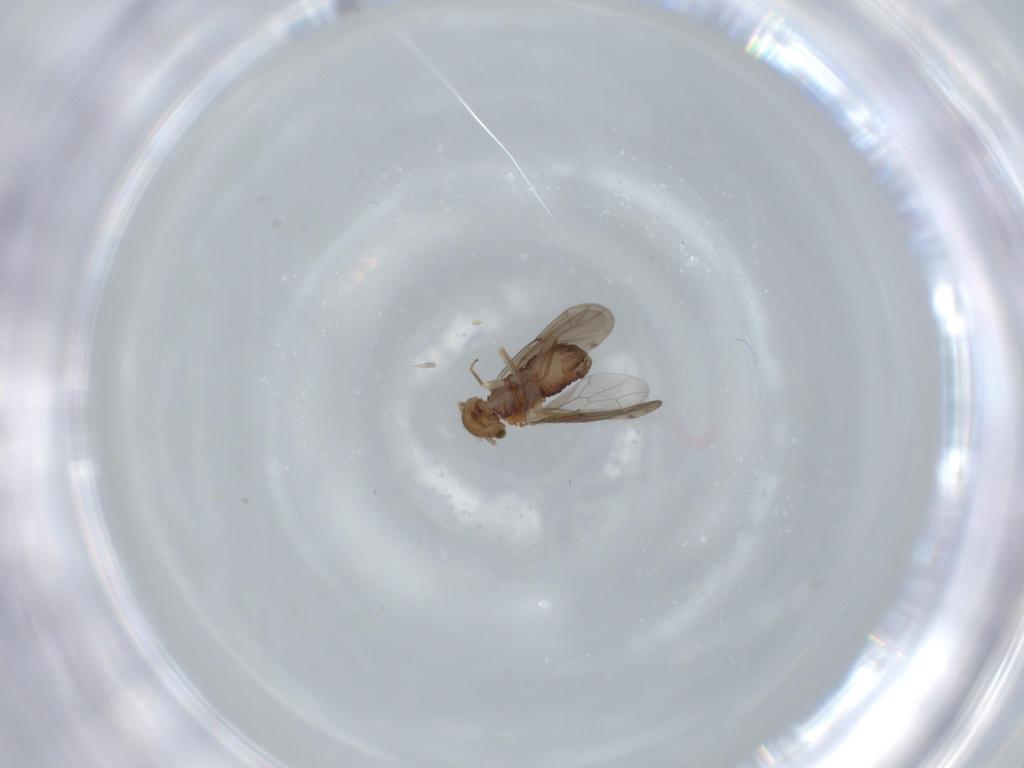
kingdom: Animalia
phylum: Arthropoda
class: Insecta
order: Psocodea
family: Ectopsocidae
